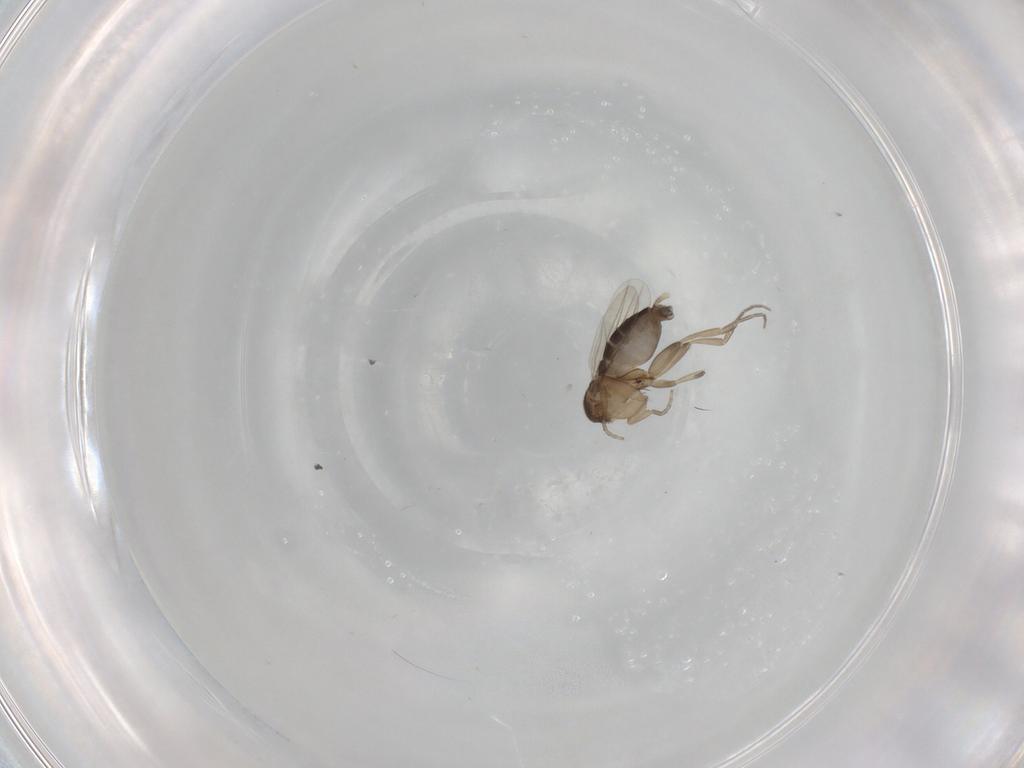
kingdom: Animalia
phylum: Arthropoda
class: Insecta
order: Diptera
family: Phoridae
